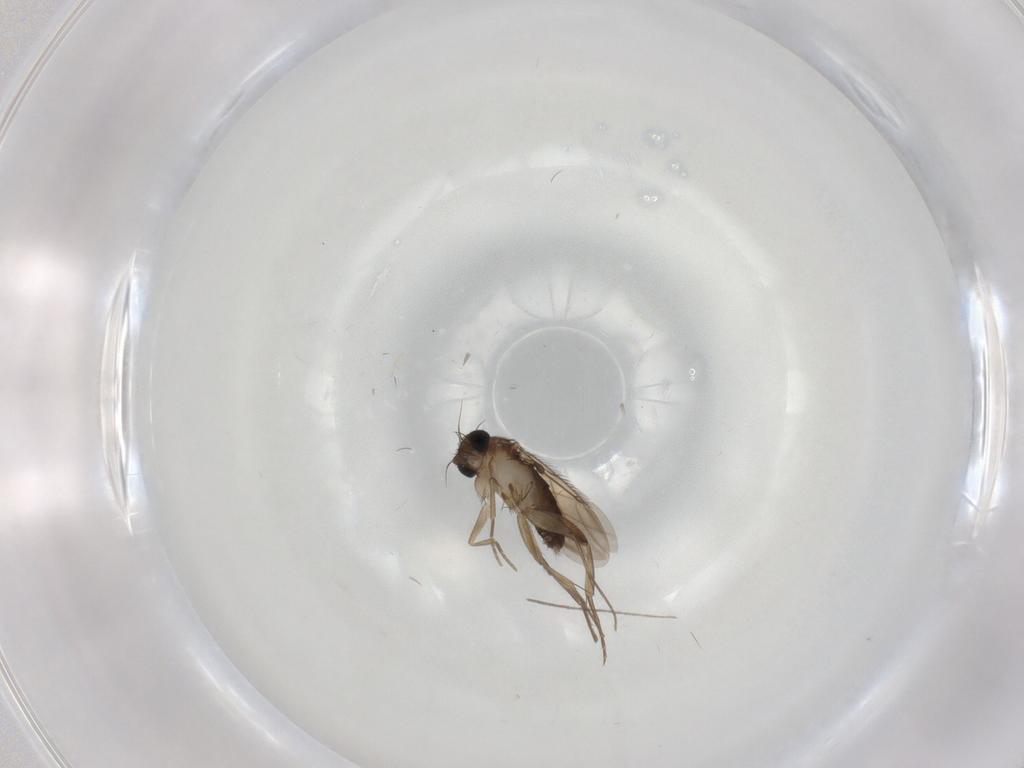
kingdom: Animalia
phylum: Arthropoda
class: Insecta
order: Diptera
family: Phoridae
